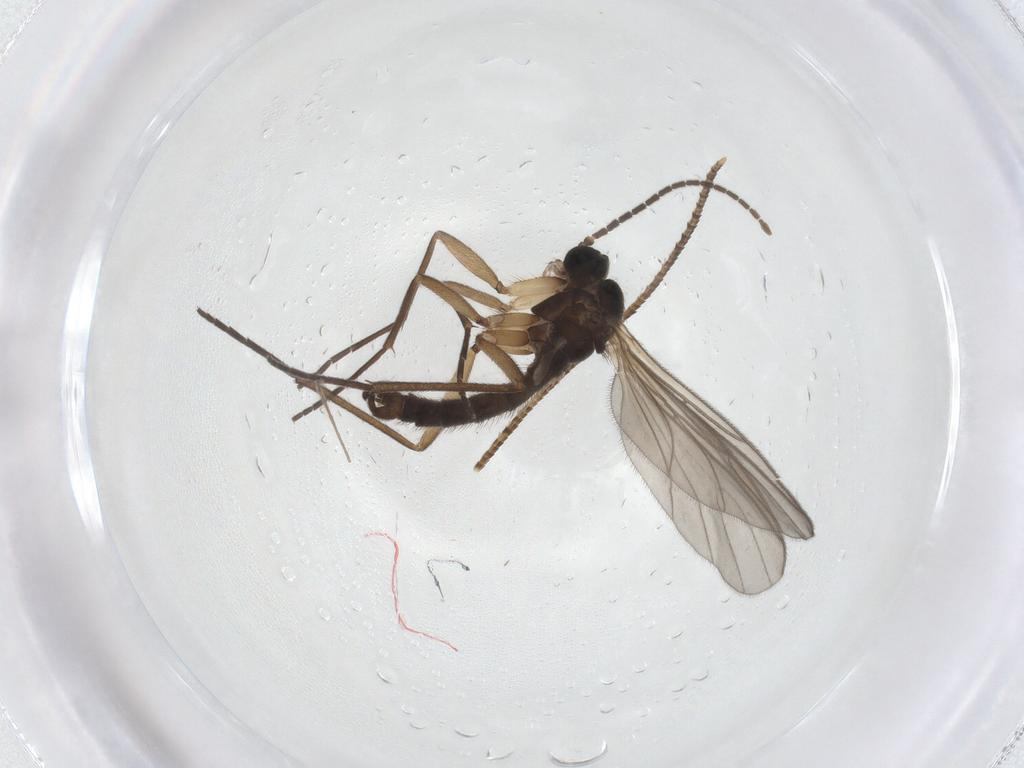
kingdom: Animalia
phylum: Arthropoda
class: Insecta
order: Diptera
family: Sciaridae
